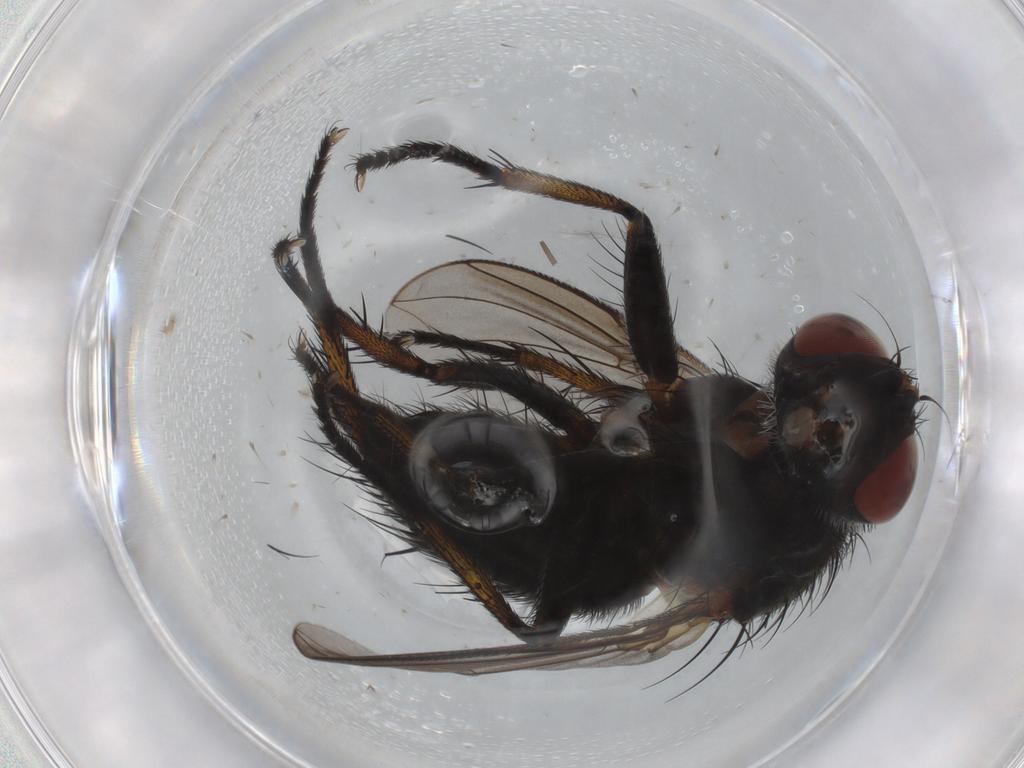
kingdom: Animalia
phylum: Arthropoda
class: Insecta
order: Diptera
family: Tachinidae
